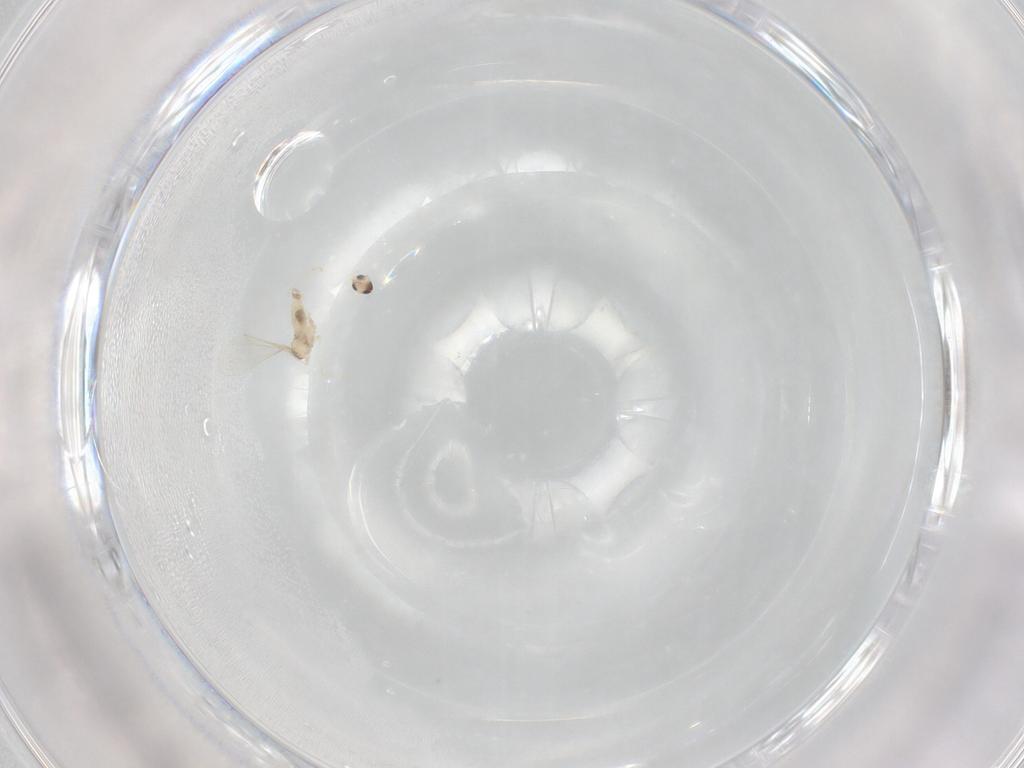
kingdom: Animalia
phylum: Arthropoda
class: Insecta
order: Diptera
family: Cecidomyiidae
